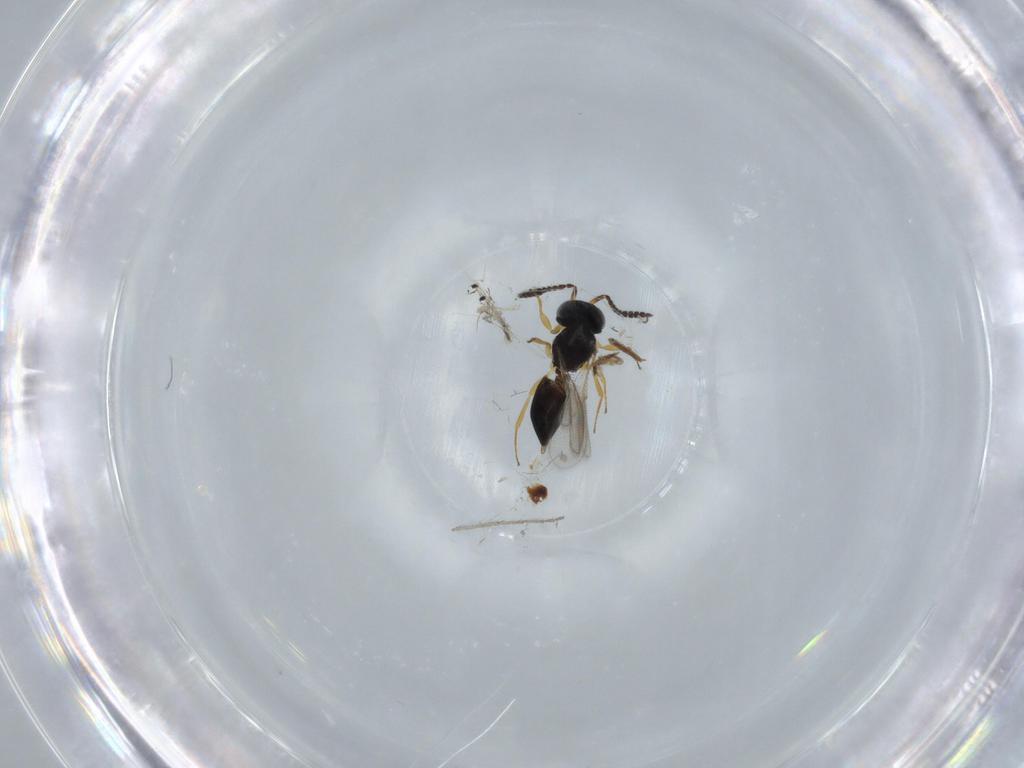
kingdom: Animalia
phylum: Arthropoda
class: Insecta
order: Hymenoptera
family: Scelionidae
